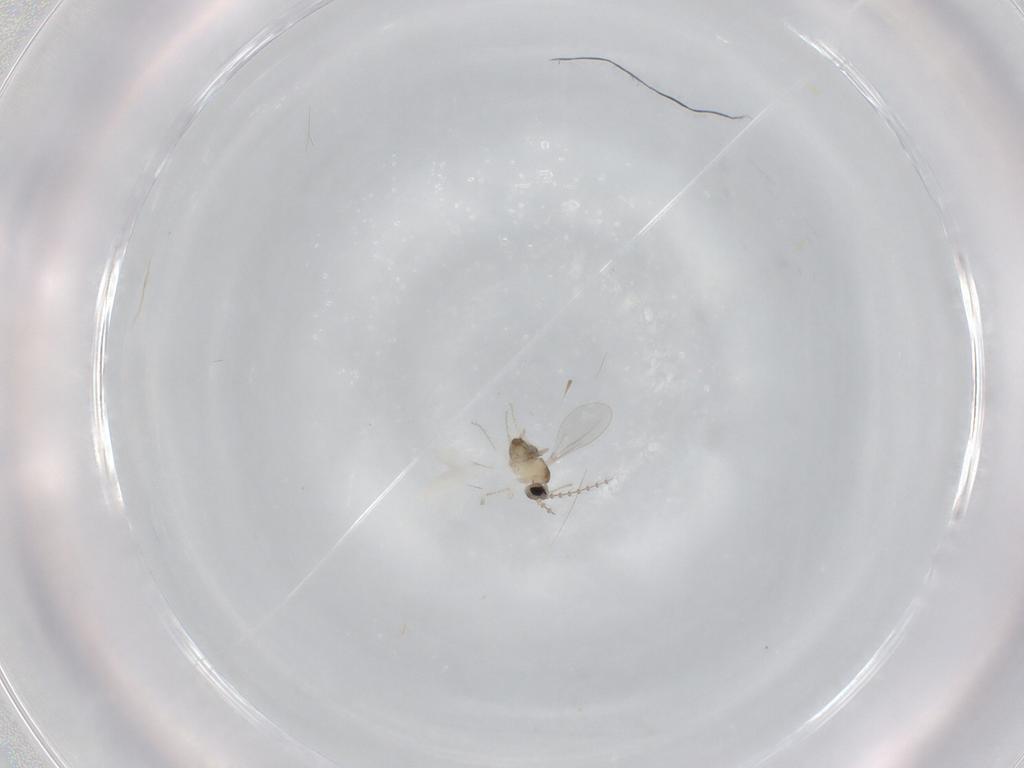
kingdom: Animalia
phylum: Arthropoda
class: Insecta
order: Diptera
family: Cecidomyiidae
